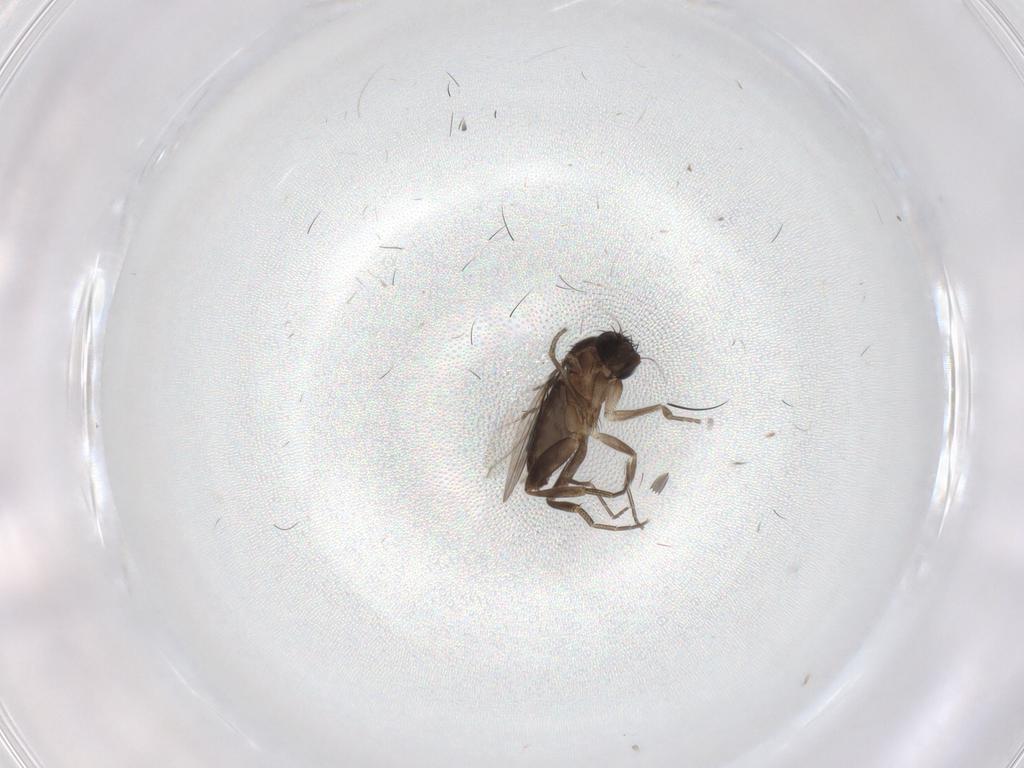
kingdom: Animalia
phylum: Arthropoda
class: Insecta
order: Diptera
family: Phoridae
